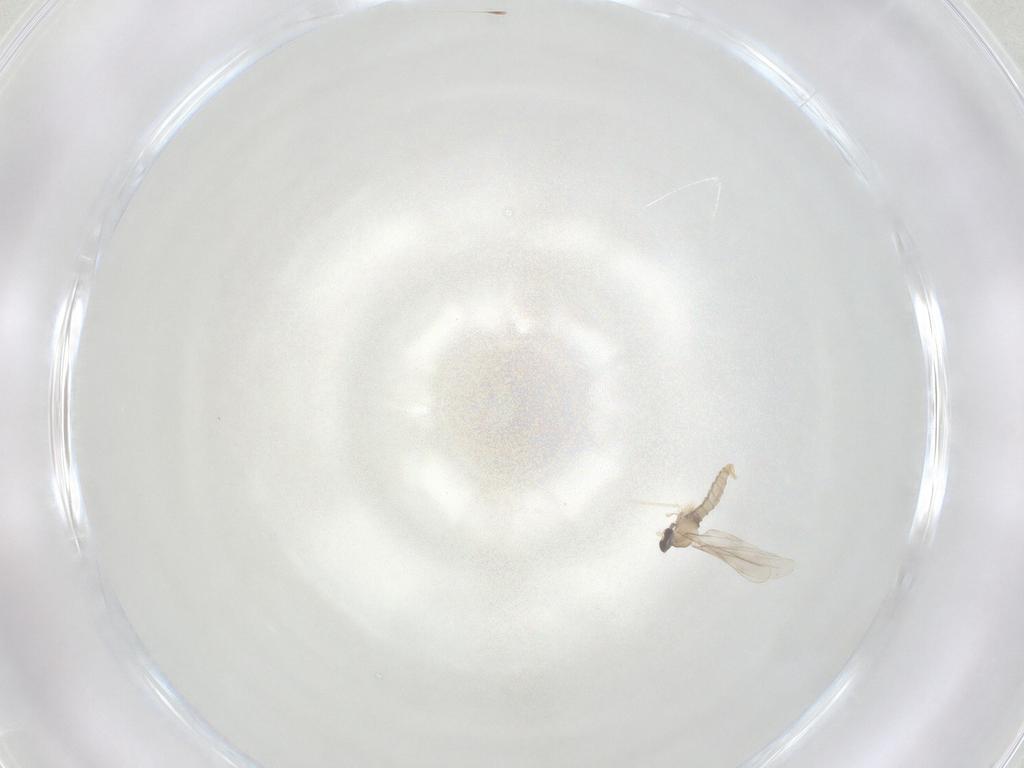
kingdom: Animalia
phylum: Arthropoda
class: Insecta
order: Diptera
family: Cecidomyiidae
